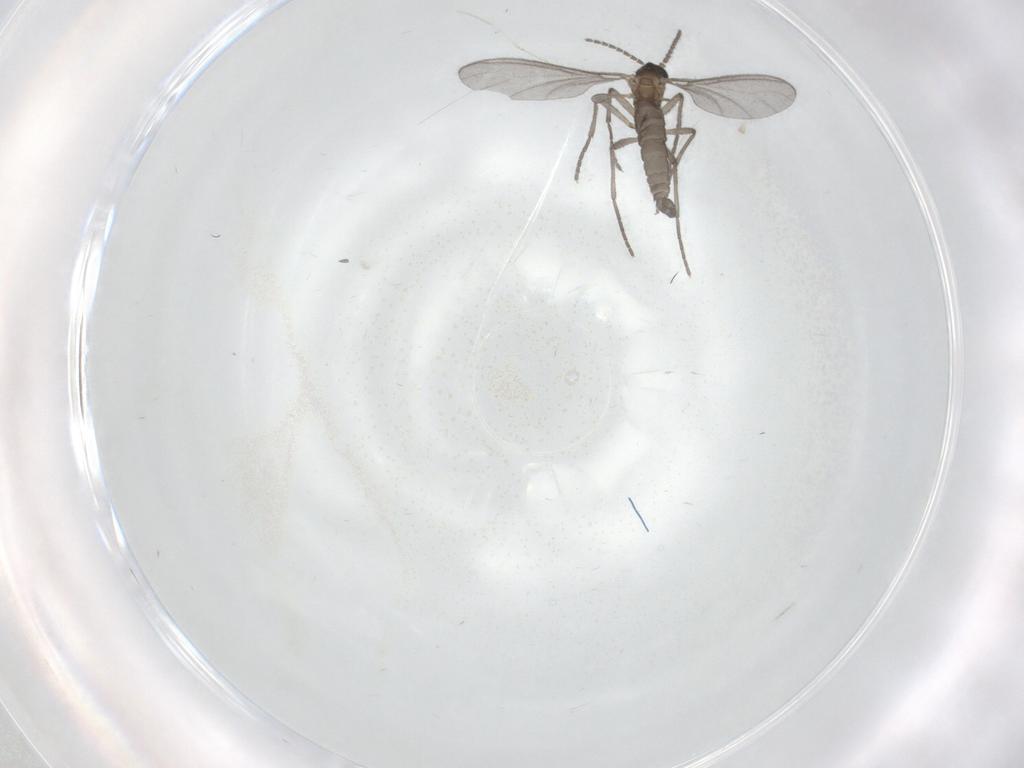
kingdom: Animalia
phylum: Arthropoda
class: Insecta
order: Diptera
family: Sciaridae
